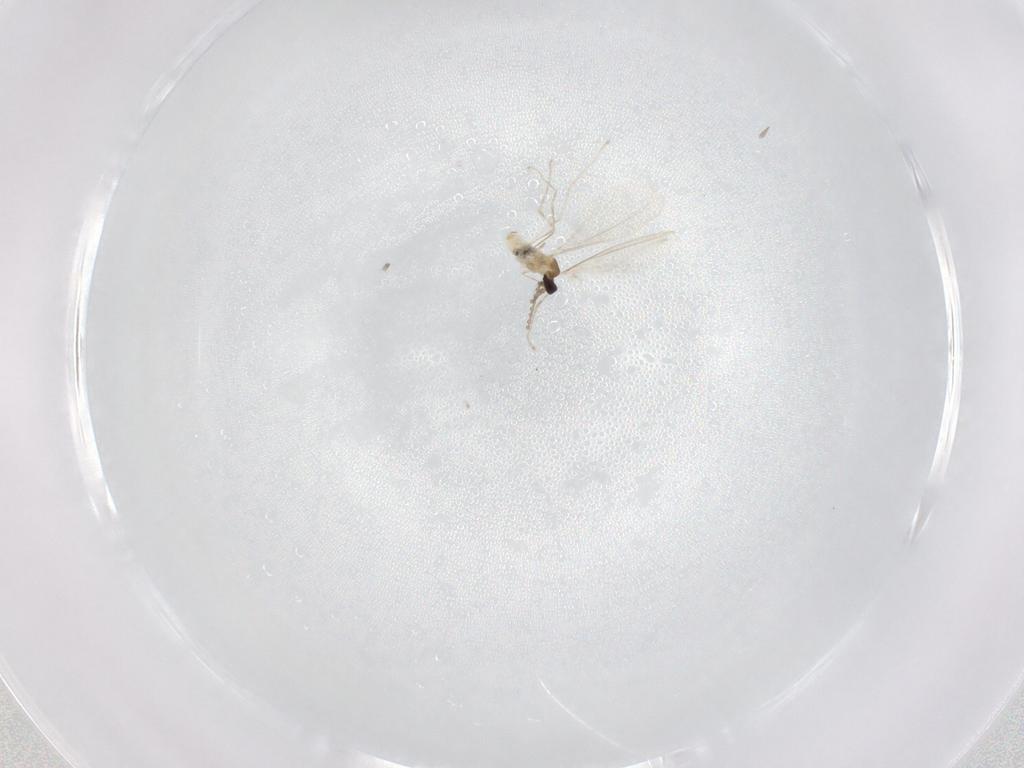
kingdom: Animalia
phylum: Arthropoda
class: Insecta
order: Diptera
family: Cecidomyiidae
